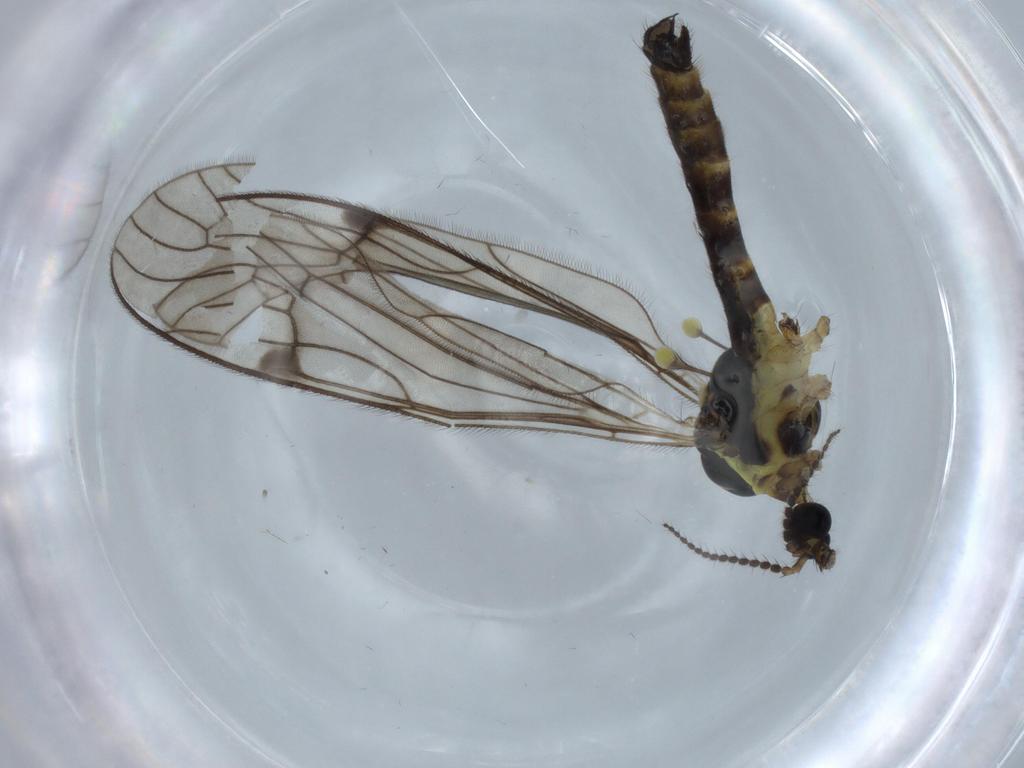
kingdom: Animalia
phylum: Arthropoda
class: Insecta
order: Diptera
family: Limoniidae
